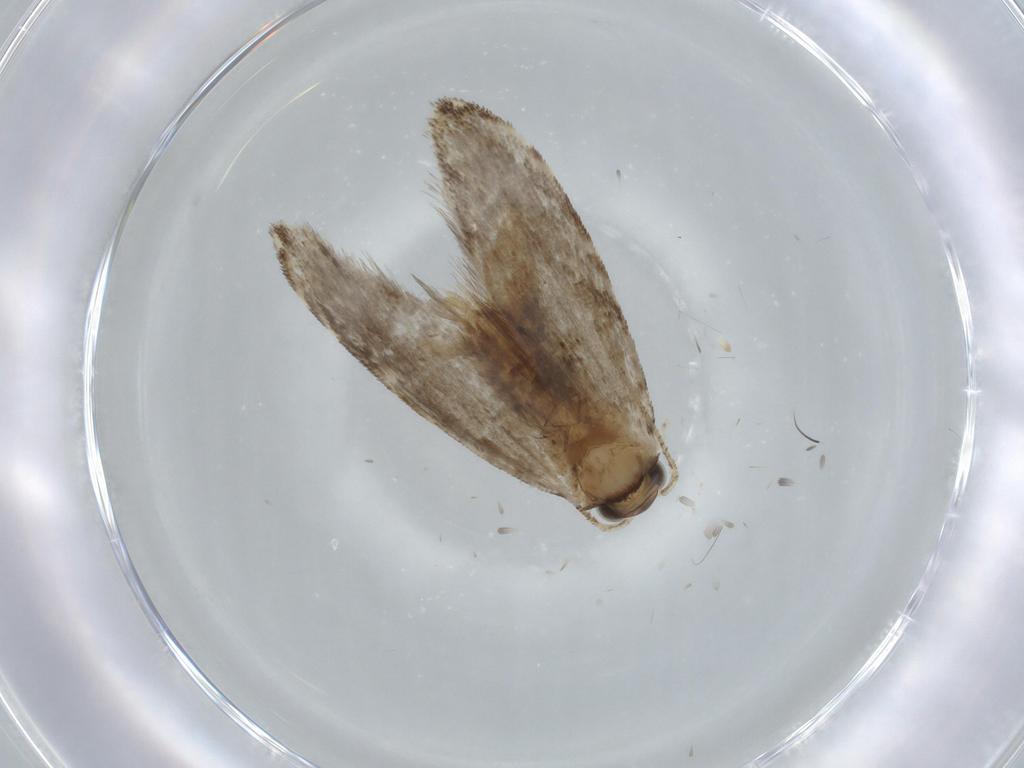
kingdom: Animalia
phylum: Arthropoda
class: Insecta
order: Lepidoptera
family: Tineidae
